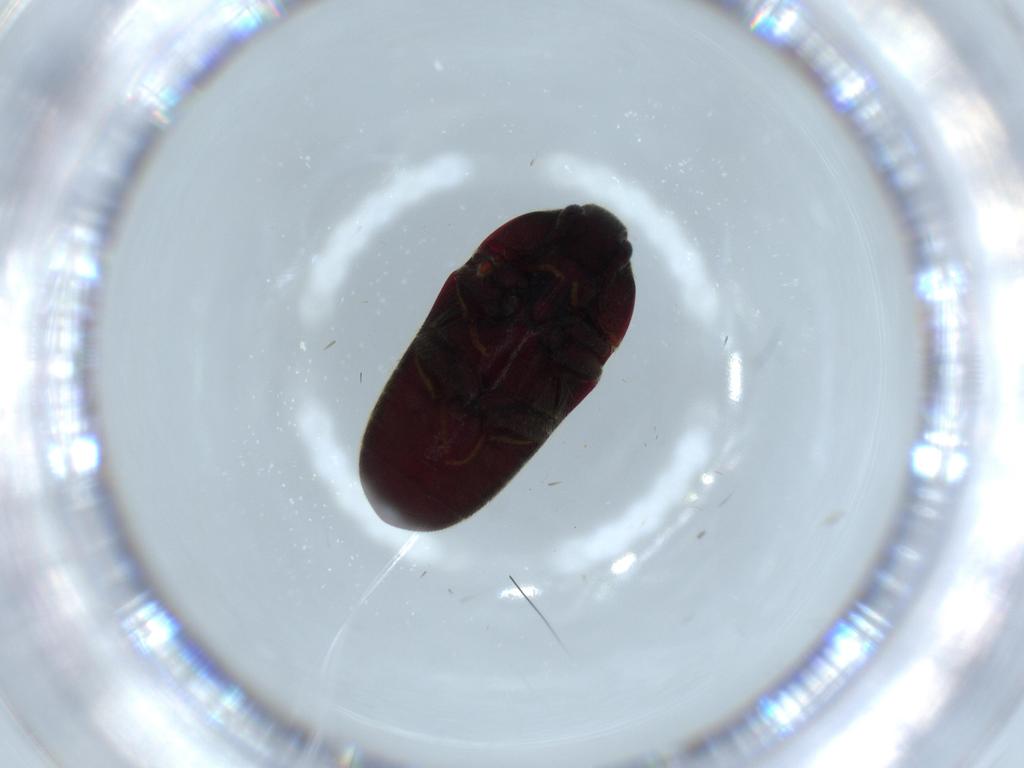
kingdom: Animalia
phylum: Arthropoda
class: Insecta
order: Coleoptera
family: Throscidae
